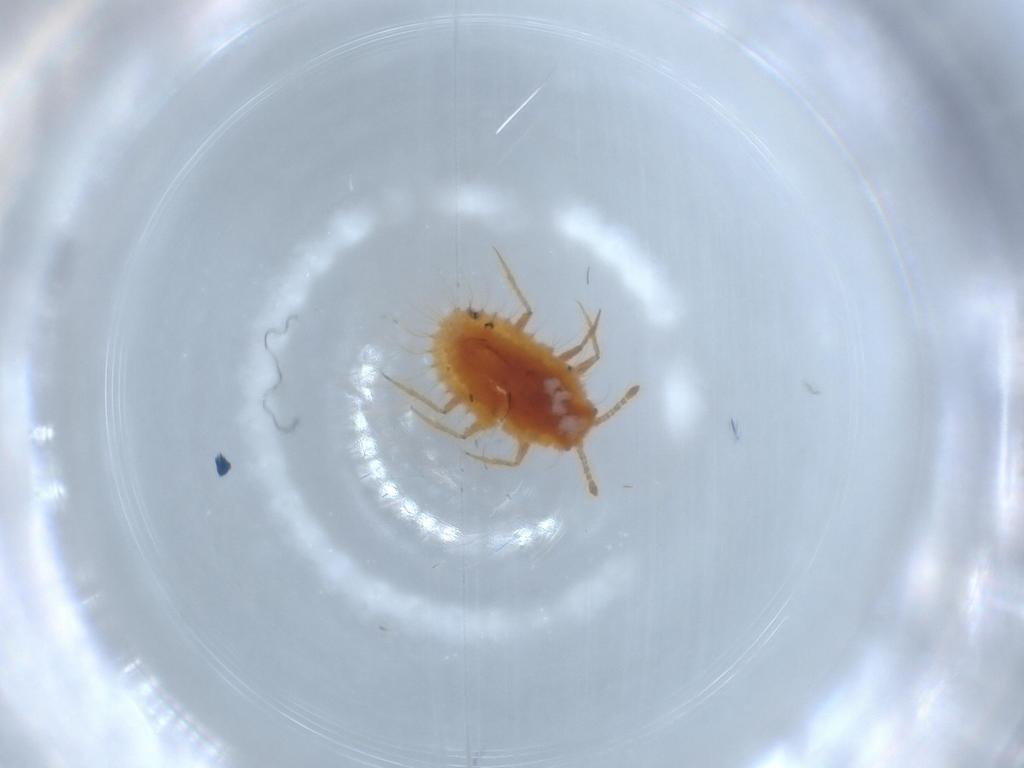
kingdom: Animalia
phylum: Arthropoda
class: Insecta
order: Hemiptera
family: Coccoidea_incertae_sedis
